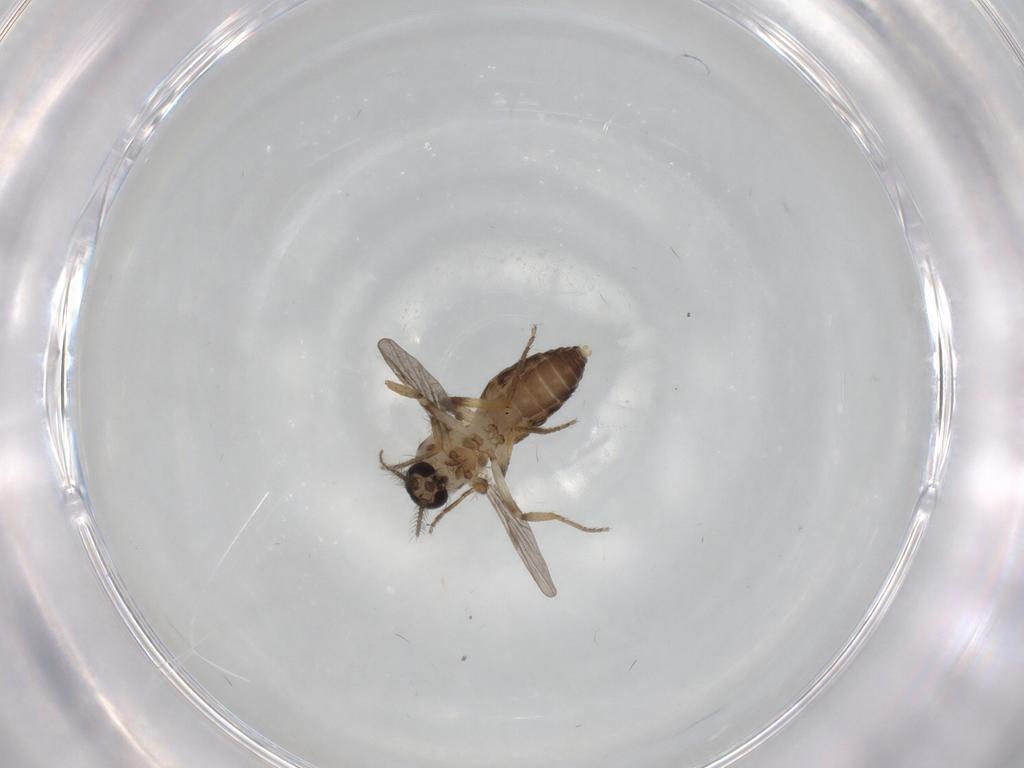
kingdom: Animalia
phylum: Arthropoda
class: Insecta
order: Diptera
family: Ceratopogonidae
